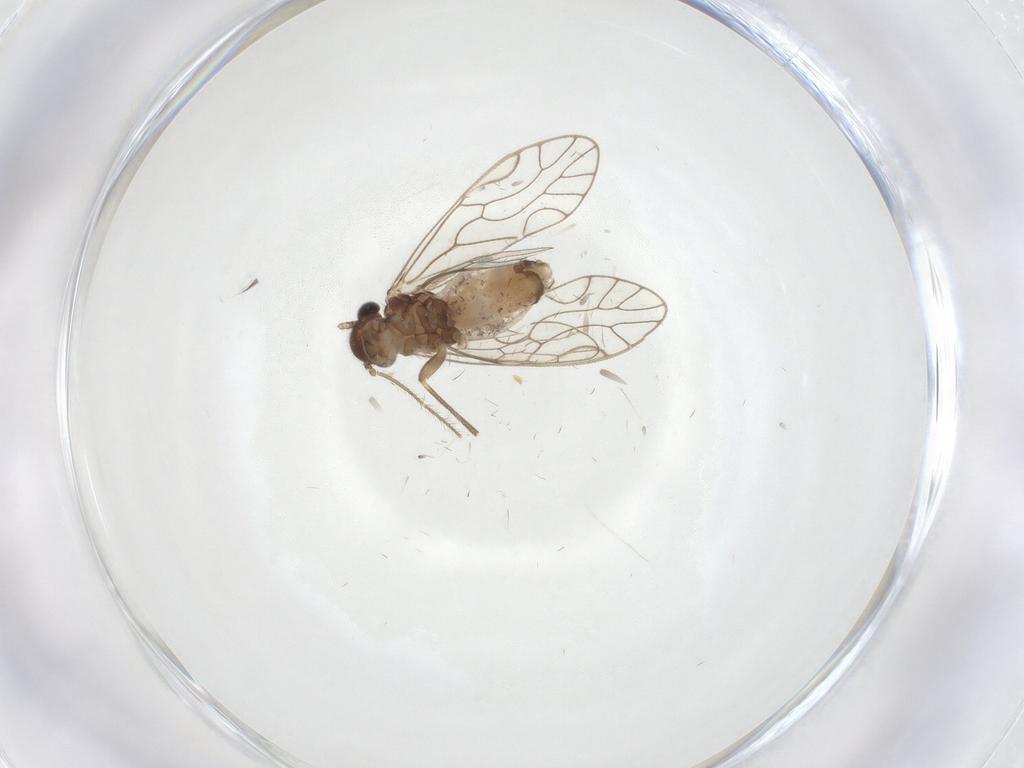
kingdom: Animalia
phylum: Arthropoda
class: Insecta
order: Psocodea
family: Epipsocidae
